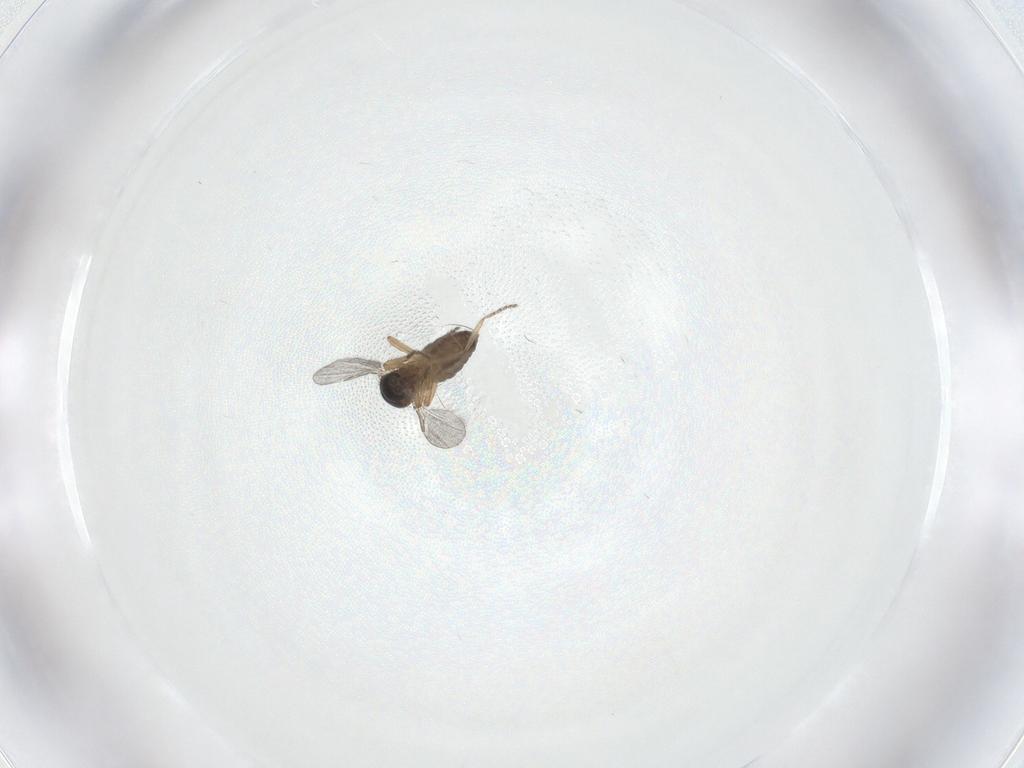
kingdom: Animalia
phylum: Arthropoda
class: Insecta
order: Diptera
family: Ceratopogonidae
